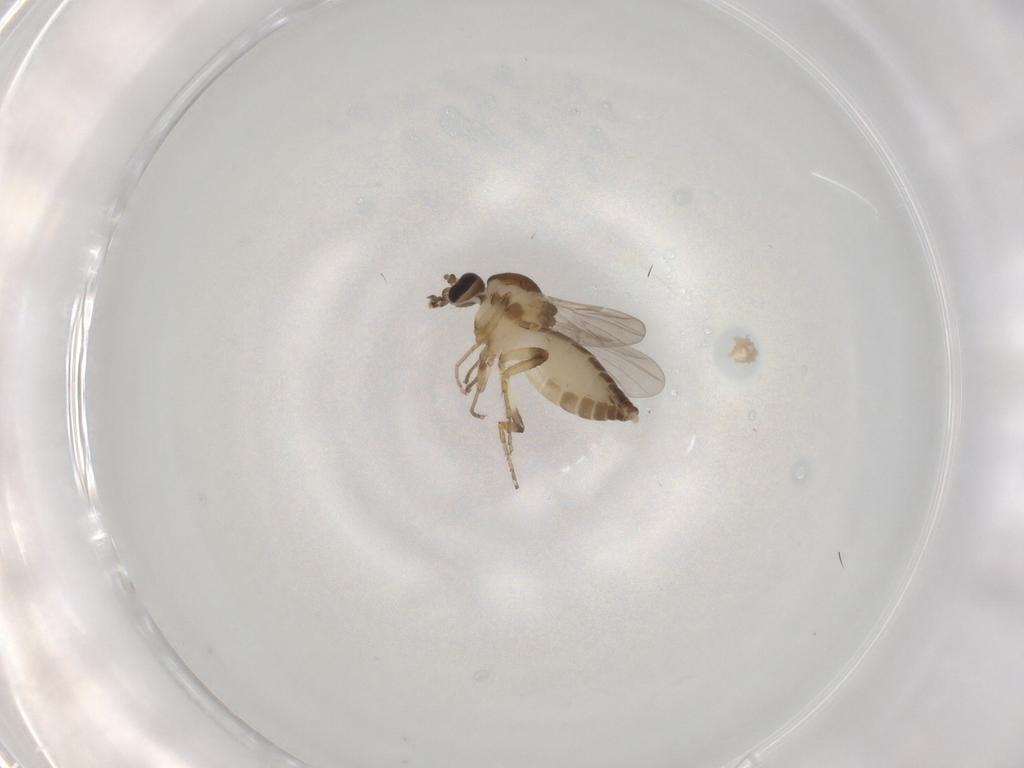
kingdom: Animalia
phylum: Arthropoda
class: Insecta
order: Diptera
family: Ceratopogonidae
